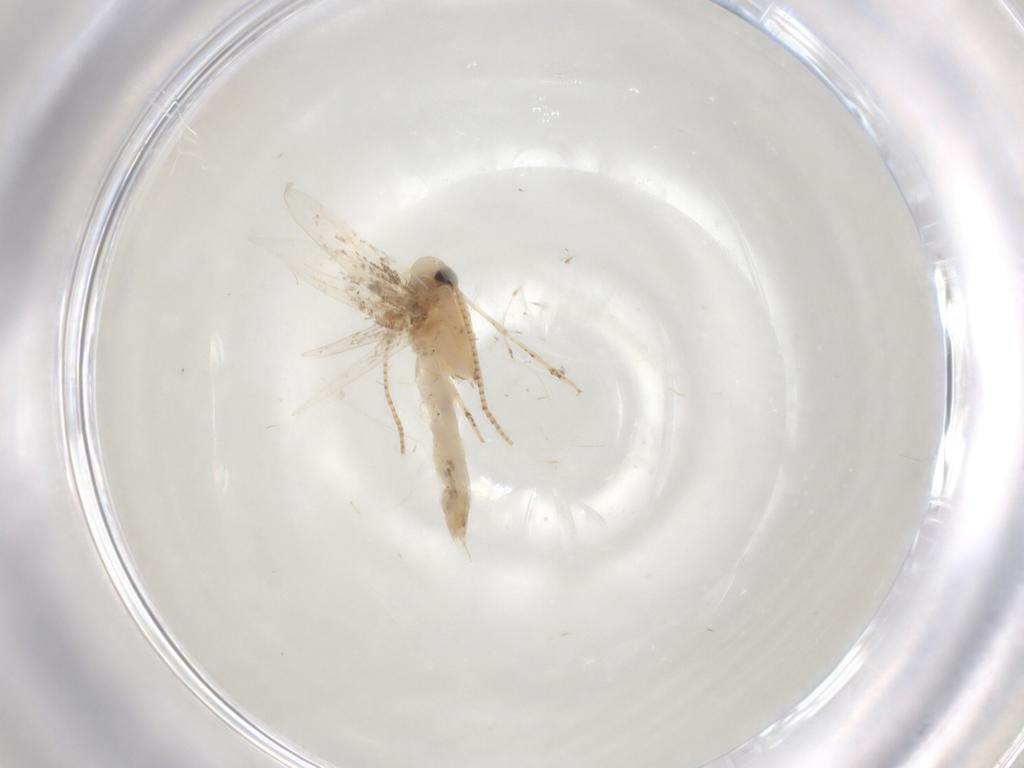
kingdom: Animalia
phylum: Arthropoda
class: Insecta
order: Lepidoptera
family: Gracillariidae
